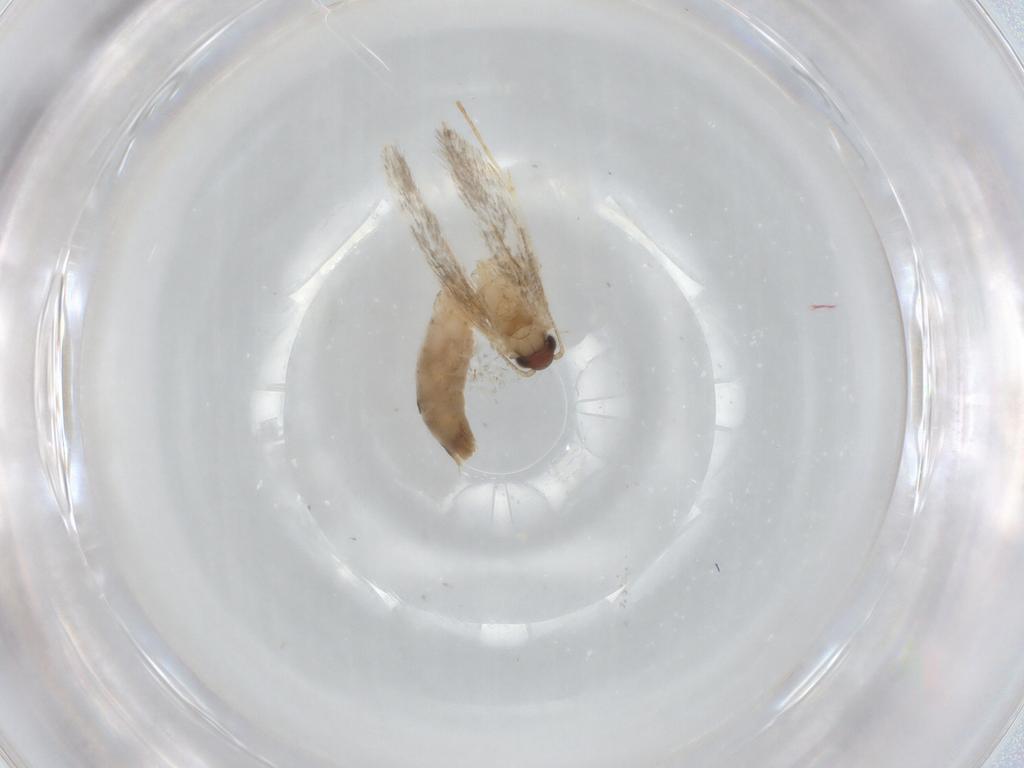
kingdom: Animalia
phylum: Arthropoda
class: Insecta
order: Lepidoptera
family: Tineidae
